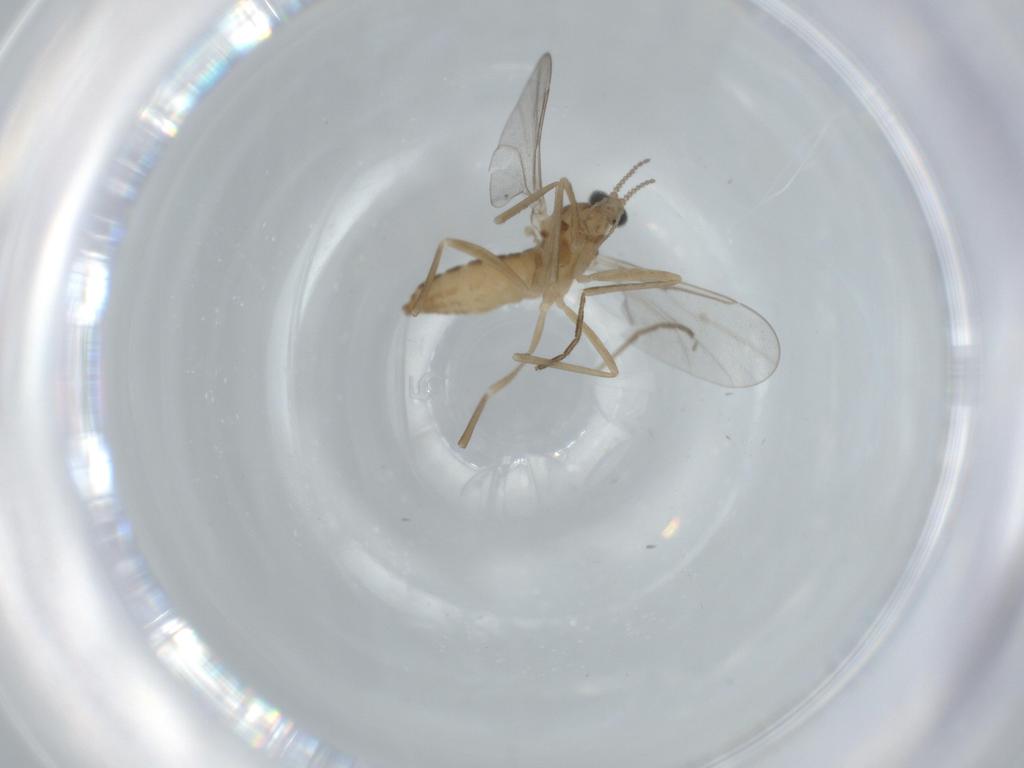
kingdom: Animalia
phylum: Arthropoda
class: Insecta
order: Diptera
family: Cecidomyiidae
